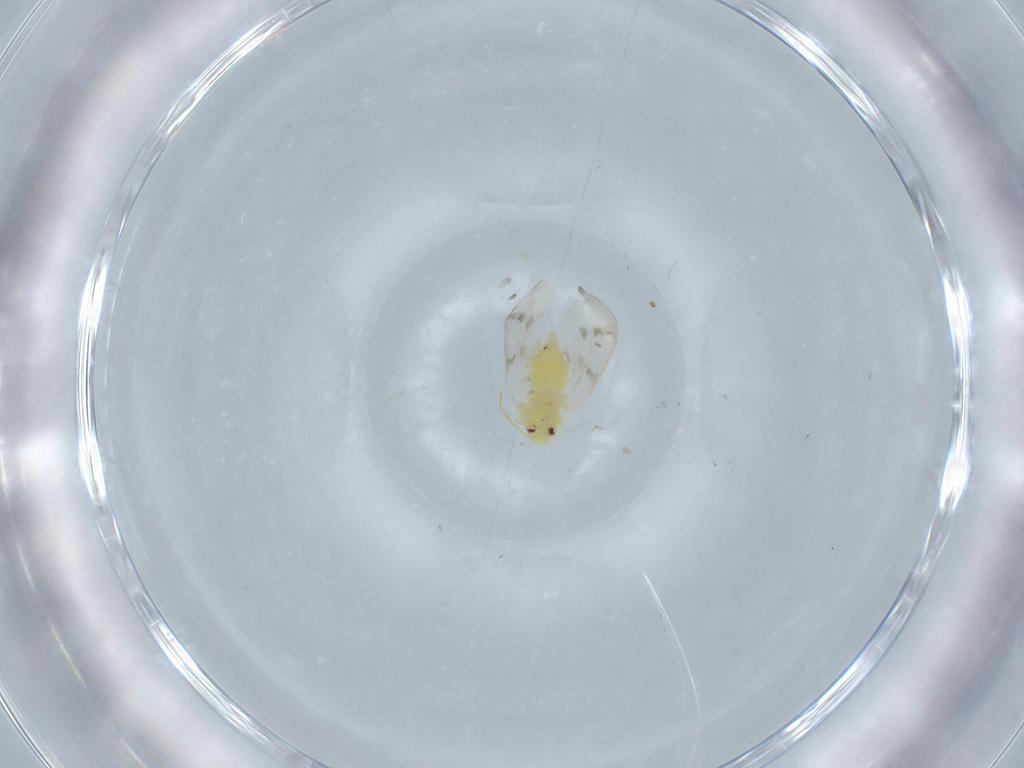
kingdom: Animalia
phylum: Arthropoda
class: Insecta
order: Hemiptera
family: Aleyrodidae
